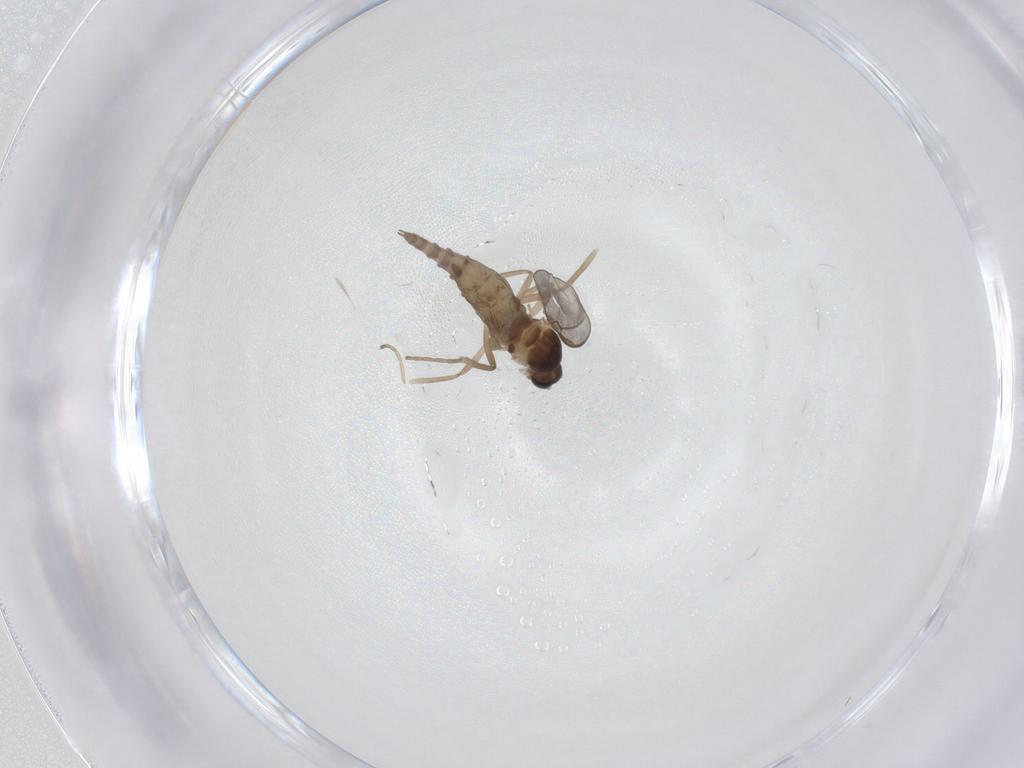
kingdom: Animalia
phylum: Arthropoda
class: Insecta
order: Diptera
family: Cecidomyiidae
